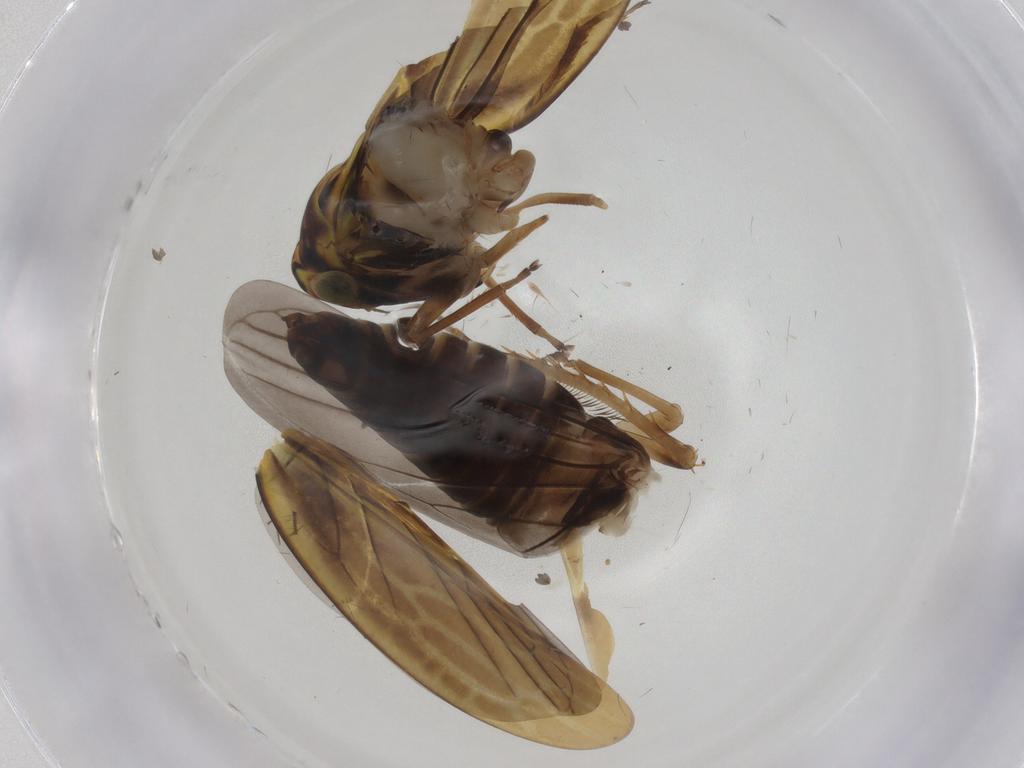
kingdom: Animalia
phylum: Arthropoda
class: Insecta
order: Hemiptera
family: Cicadellidae
